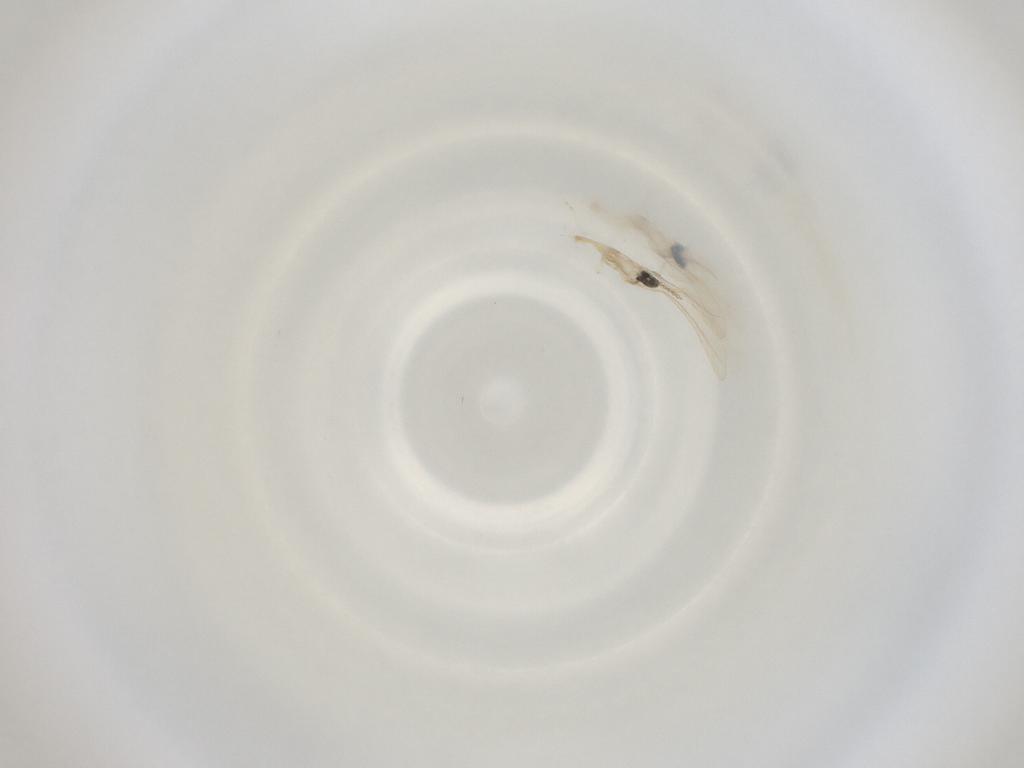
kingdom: Animalia
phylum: Arthropoda
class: Insecta
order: Diptera
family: Cecidomyiidae
